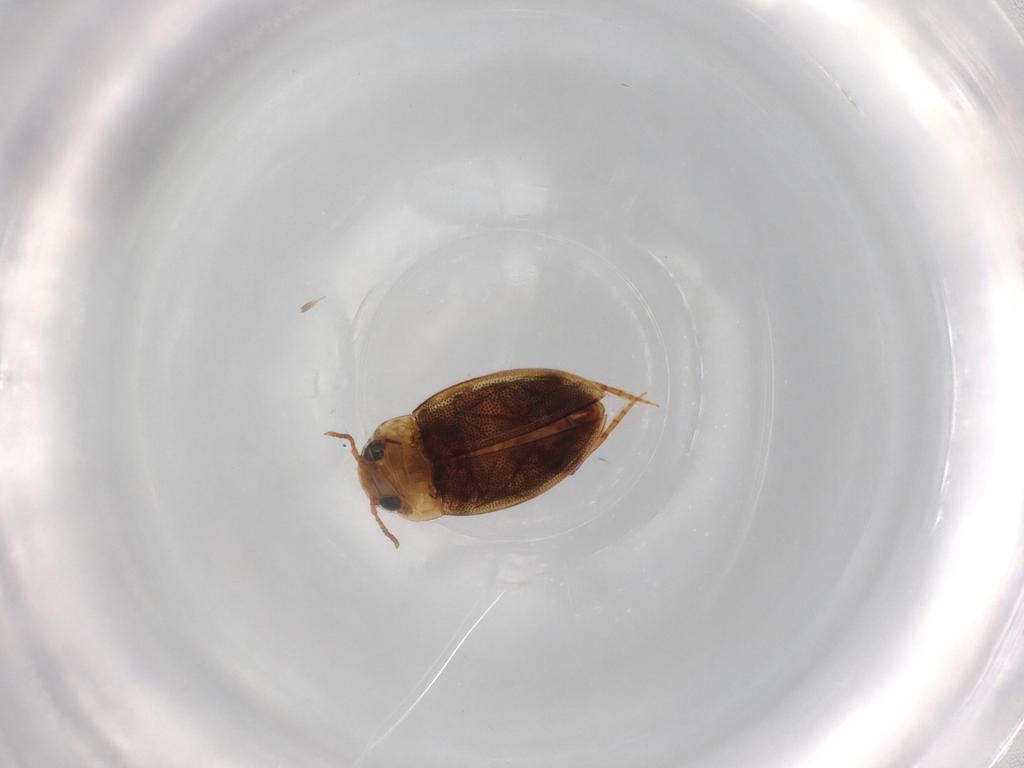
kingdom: Animalia
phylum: Arthropoda
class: Insecta
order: Coleoptera
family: Dytiscidae
